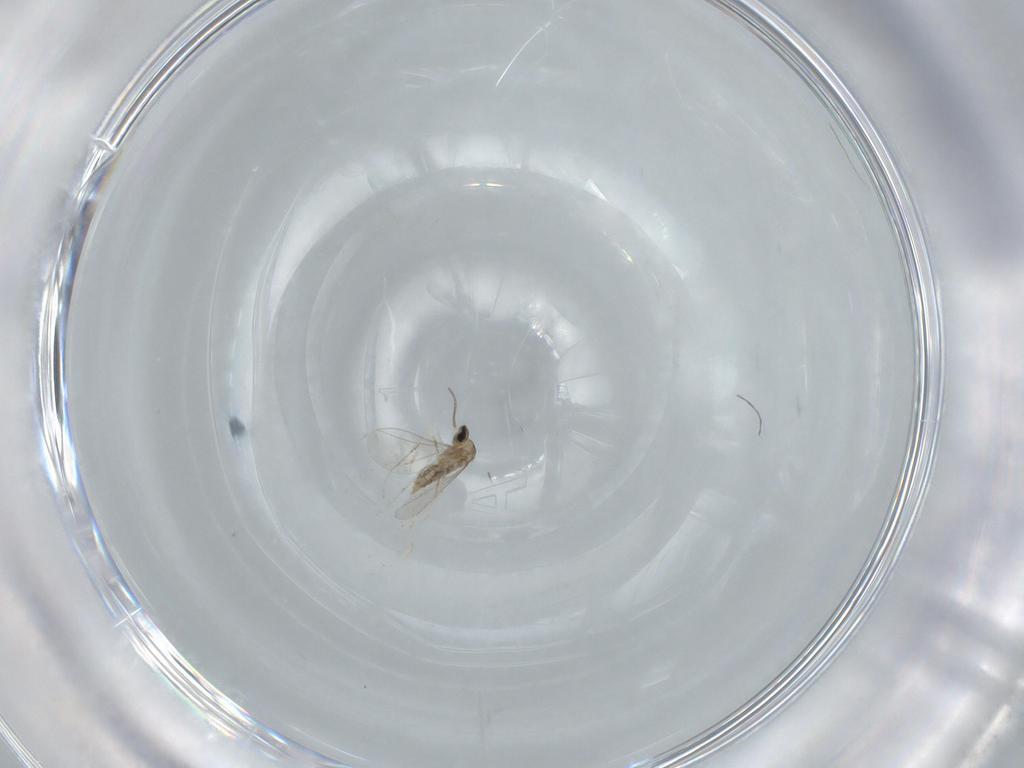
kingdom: Animalia
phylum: Arthropoda
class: Insecta
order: Diptera
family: Cecidomyiidae
